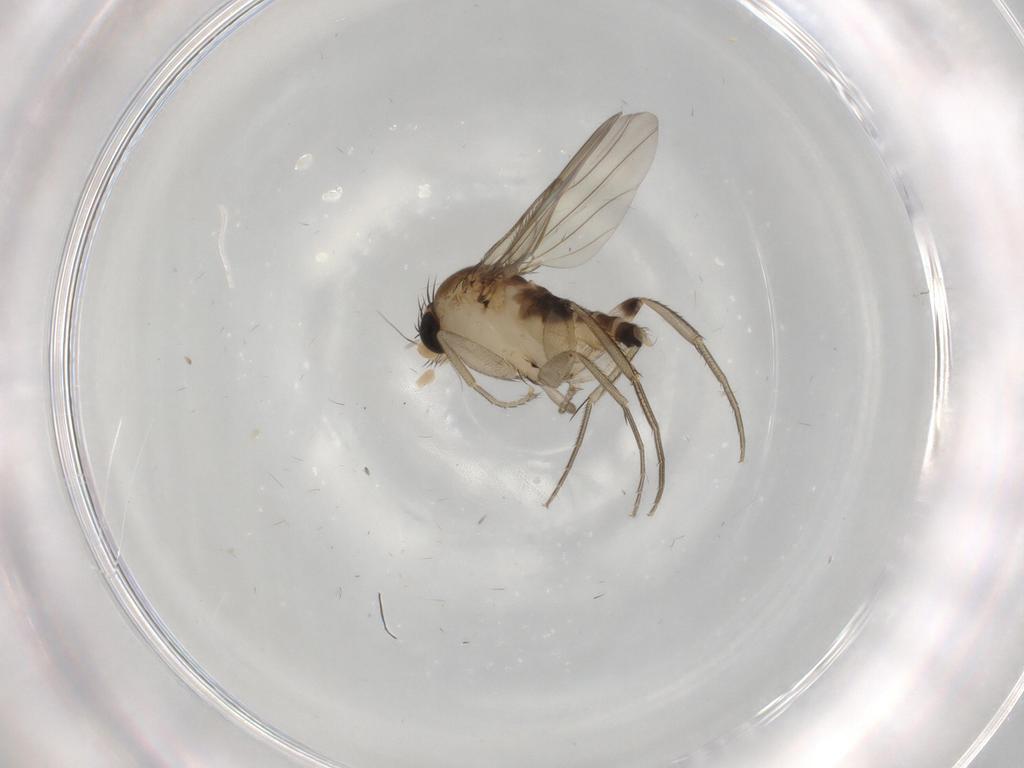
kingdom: Animalia
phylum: Arthropoda
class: Insecta
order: Diptera
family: Phoridae
